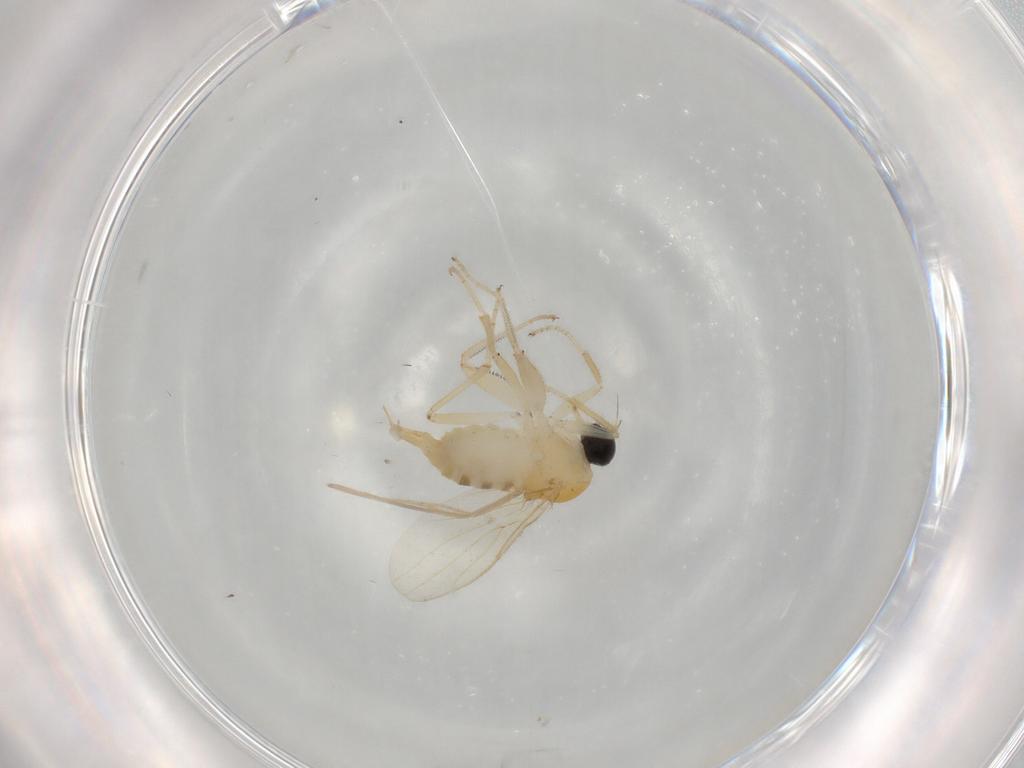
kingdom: Animalia
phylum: Arthropoda
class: Insecta
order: Diptera
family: Hybotidae
